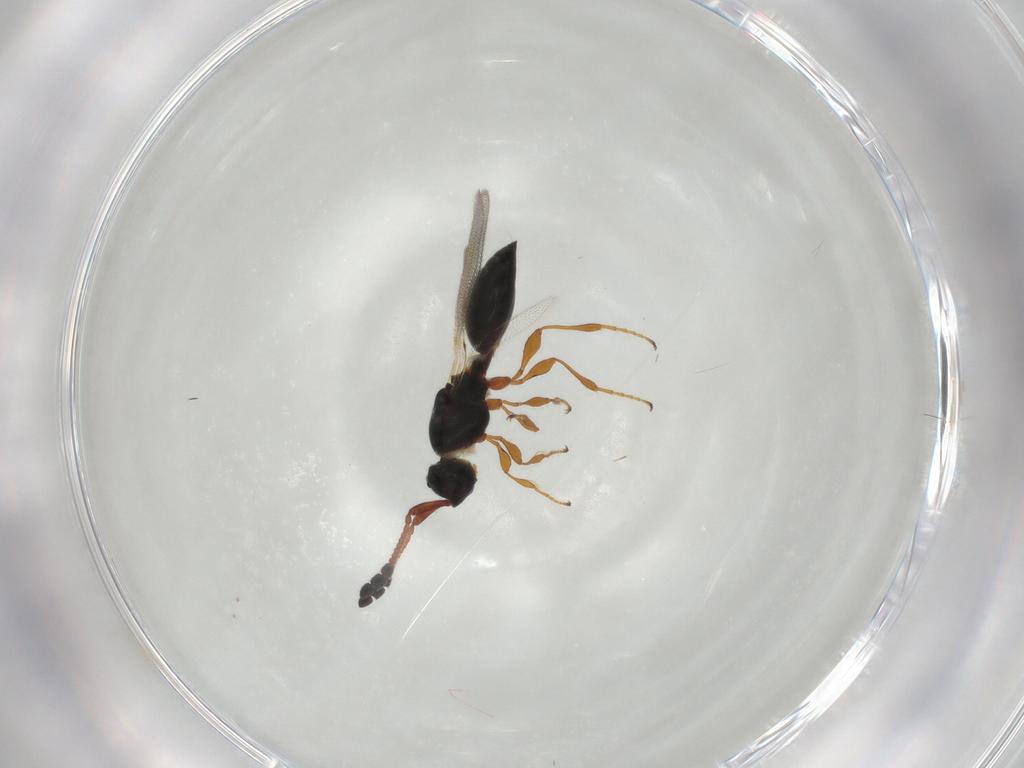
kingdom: Animalia
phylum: Arthropoda
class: Insecta
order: Hymenoptera
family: Diapriidae
